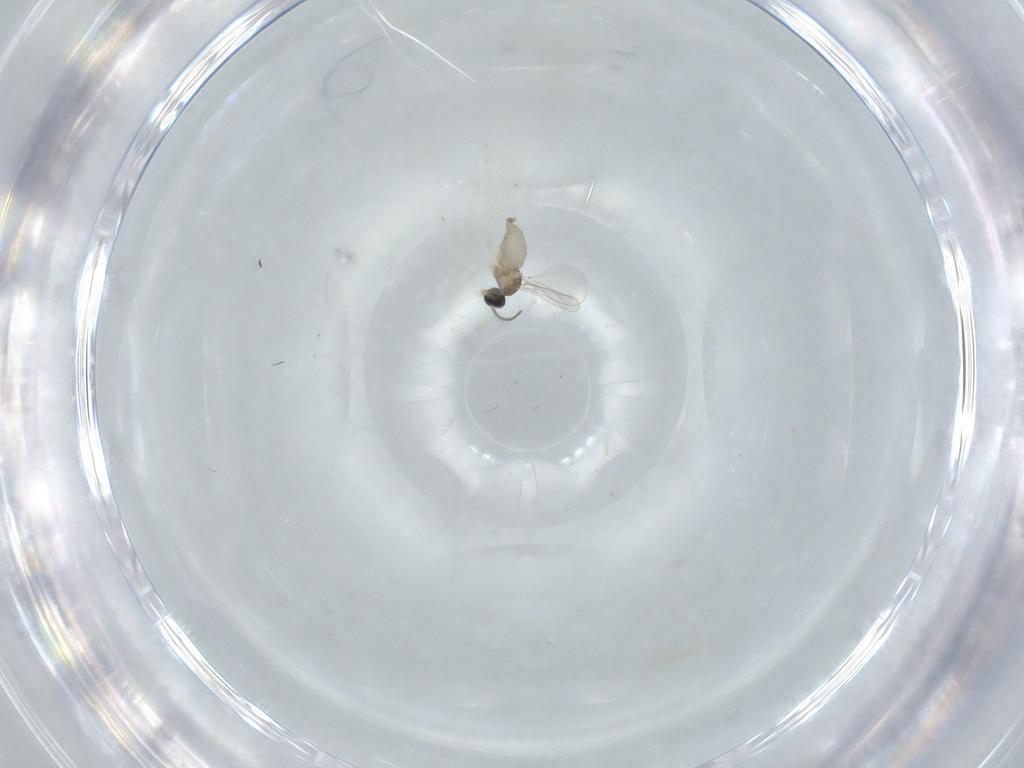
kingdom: Animalia
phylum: Arthropoda
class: Insecta
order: Diptera
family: Cecidomyiidae
